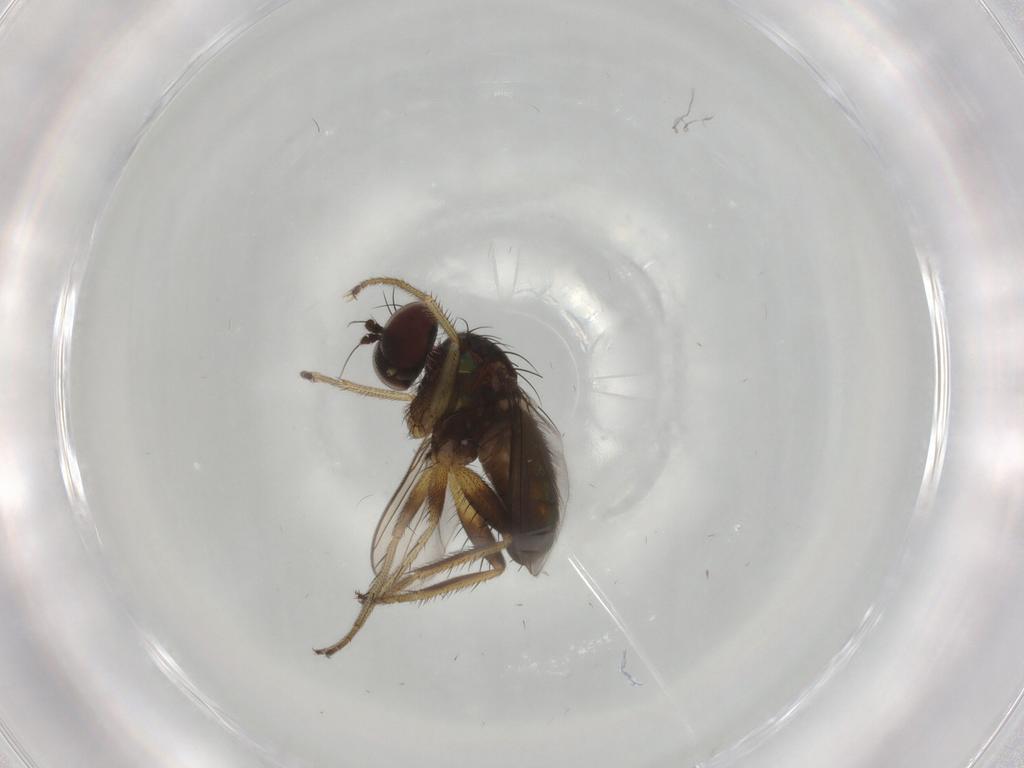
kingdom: Animalia
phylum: Arthropoda
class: Insecta
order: Diptera
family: Dolichopodidae
